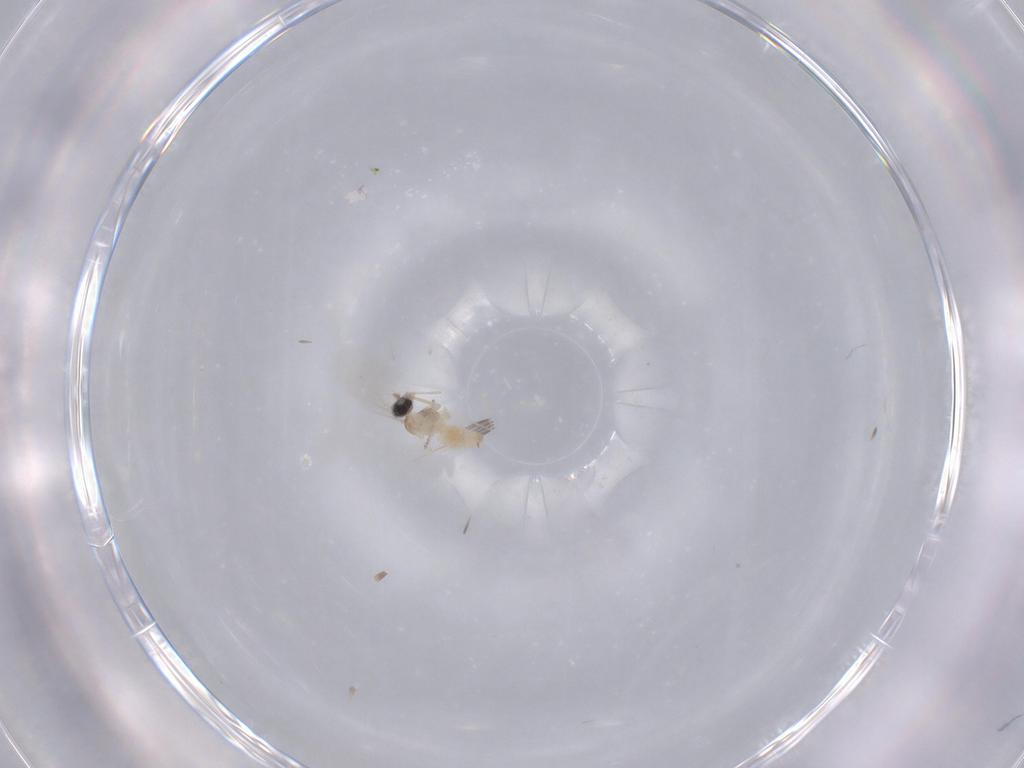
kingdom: Animalia
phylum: Arthropoda
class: Insecta
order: Diptera
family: Cecidomyiidae
